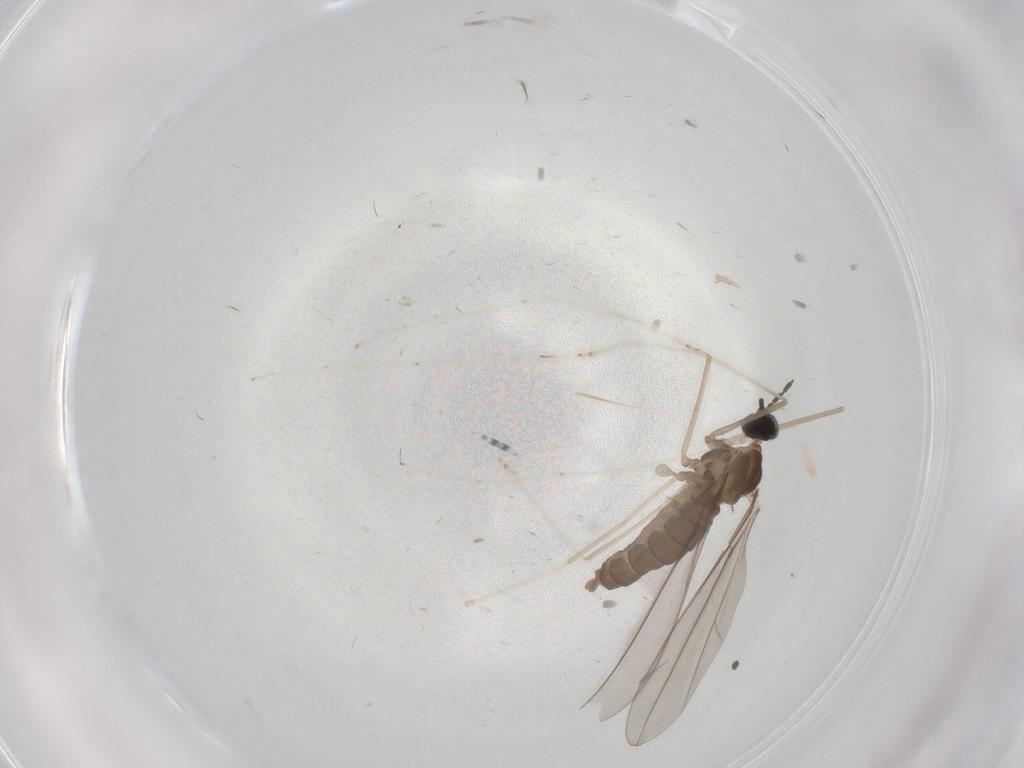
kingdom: Animalia
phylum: Arthropoda
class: Insecta
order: Diptera
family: Cecidomyiidae
